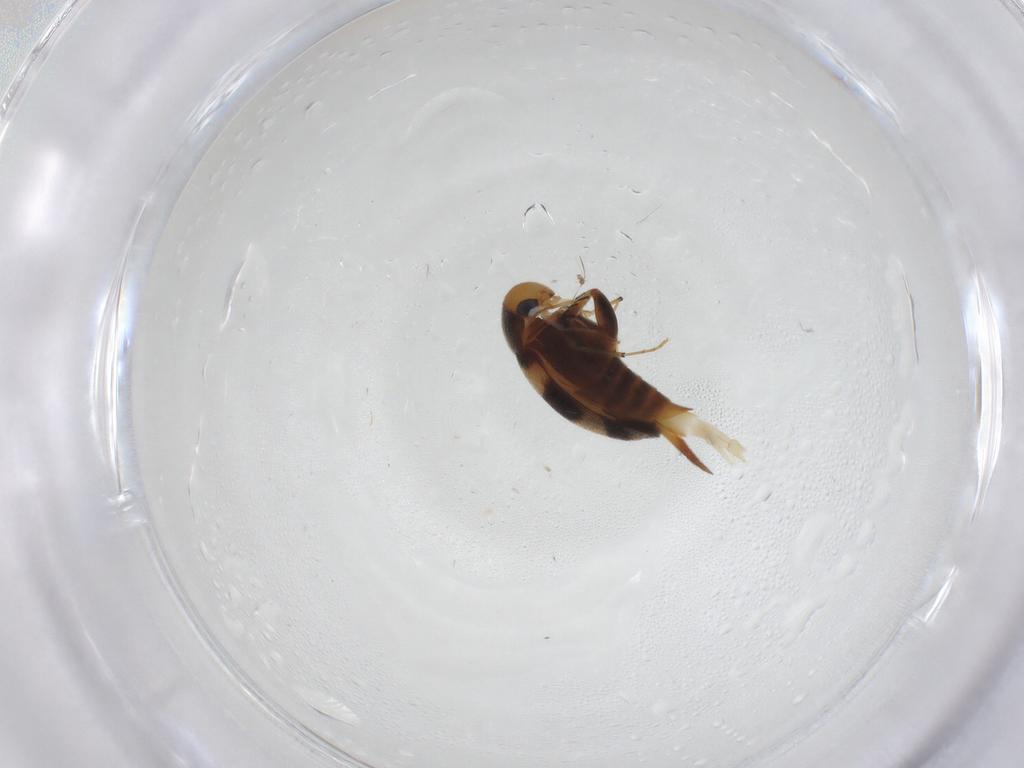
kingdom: Animalia
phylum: Arthropoda
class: Insecta
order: Coleoptera
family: Mordellidae
